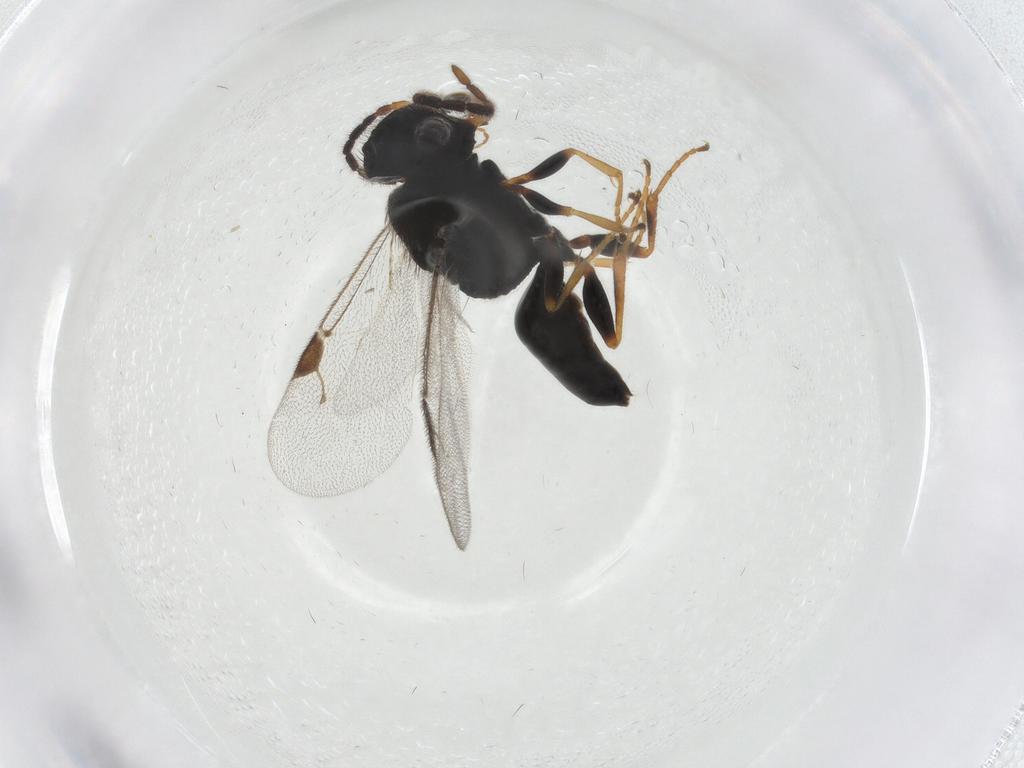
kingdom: Animalia
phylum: Arthropoda
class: Insecta
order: Hymenoptera
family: Dryinidae
